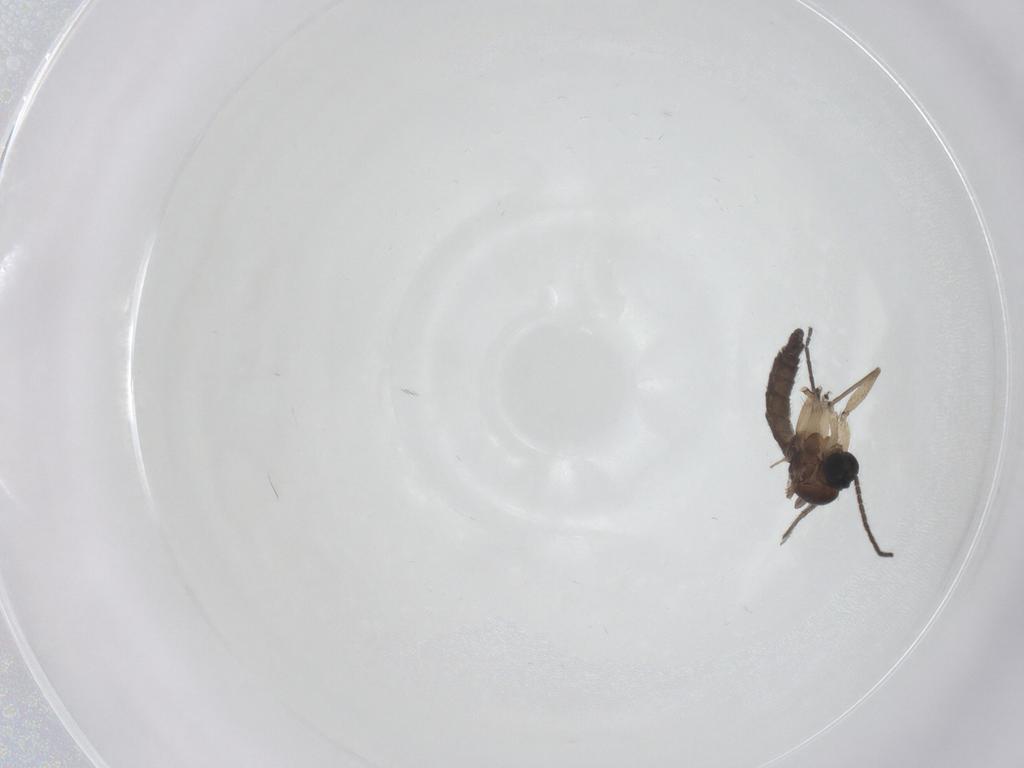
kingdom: Animalia
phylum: Arthropoda
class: Insecta
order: Diptera
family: Sciaridae
